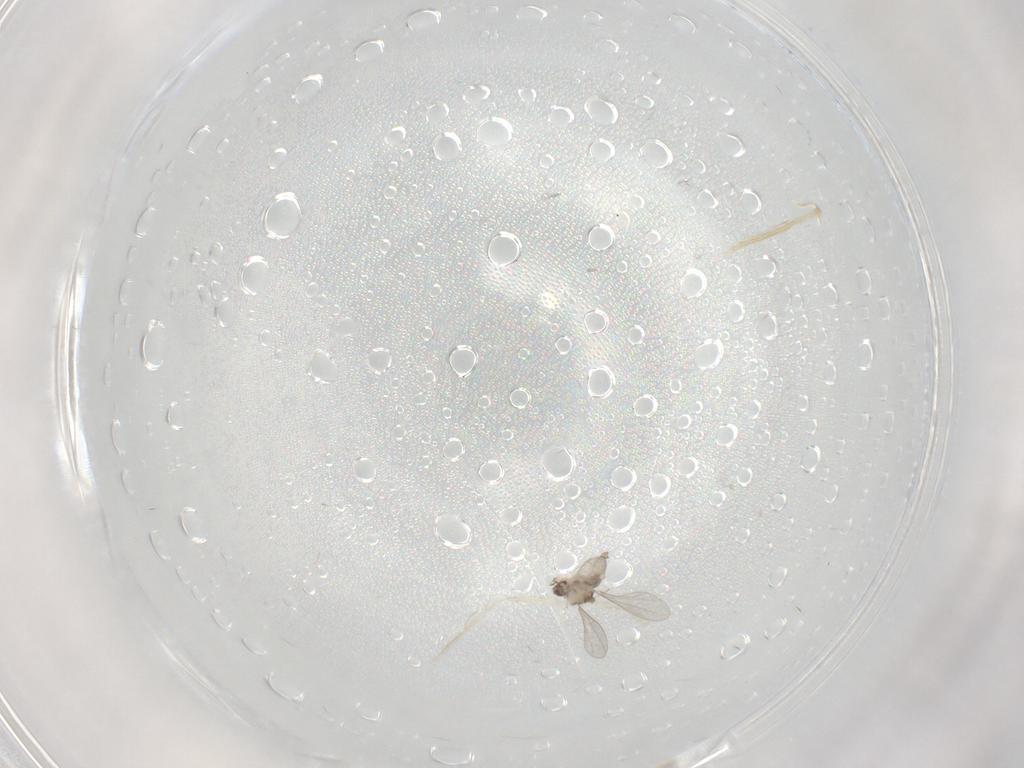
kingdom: Animalia
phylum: Arthropoda
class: Insecta
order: Diptera
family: Cecidomyiidae
